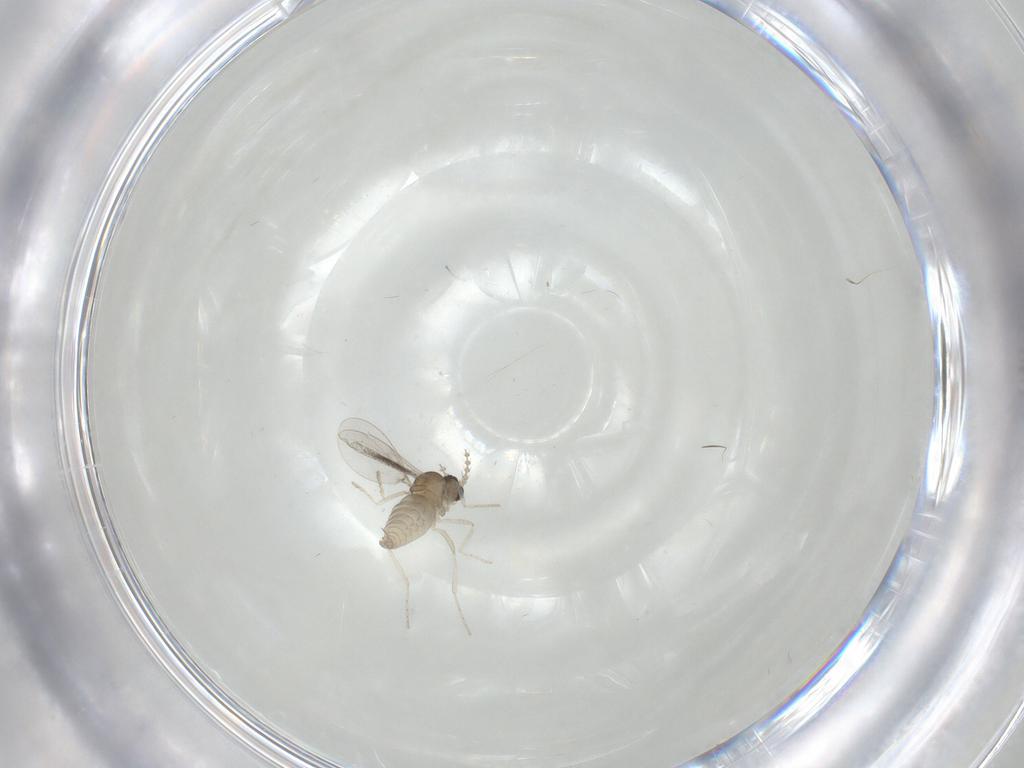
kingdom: Animalia
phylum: Arthropoda
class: Insecta
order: Diptera
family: Cecidomyiidae
